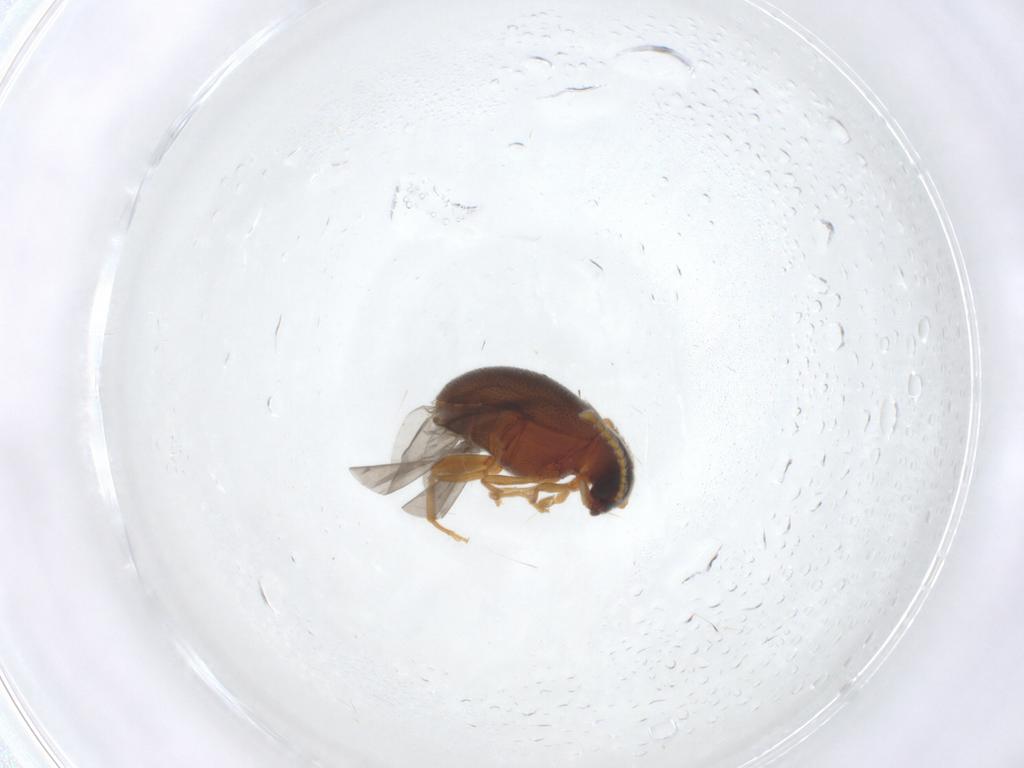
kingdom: Animalia
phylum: Arthropoda
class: Insecta
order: Coleoptera
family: Aderidae
